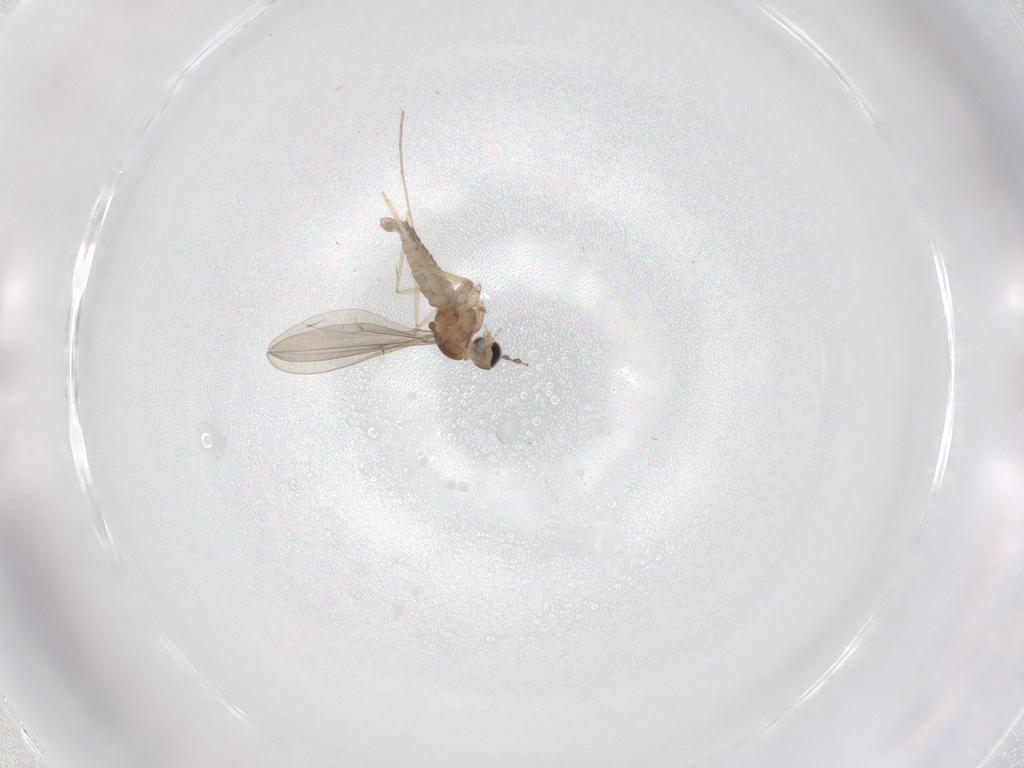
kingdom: Animalia
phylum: Arthropoda
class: Insecta
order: Diptera
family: Cecidomyiidae
